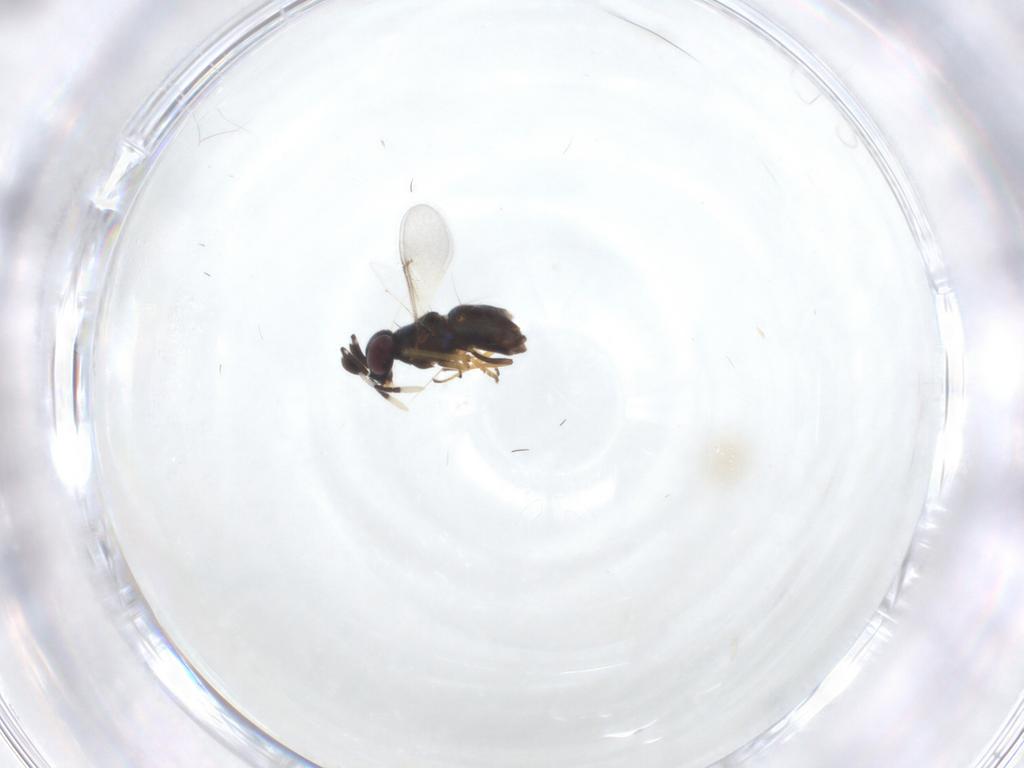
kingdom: Animalia
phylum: Arthropoda
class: Insecta
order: Hymenoptera
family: Encyrtidae
